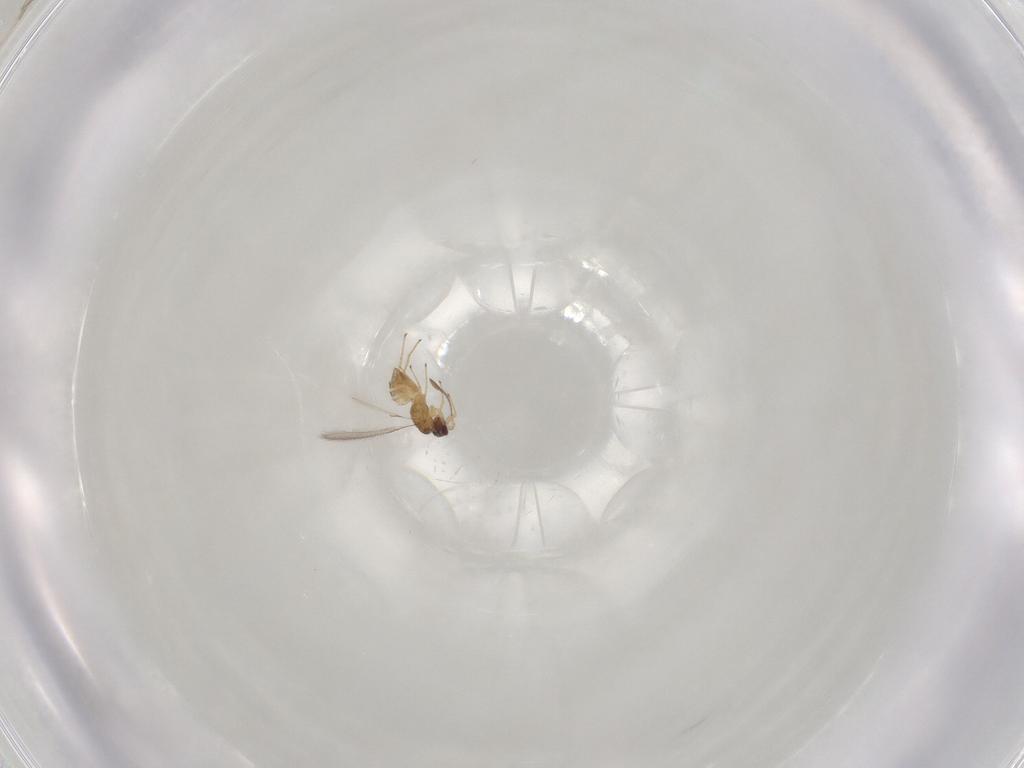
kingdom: Animalia
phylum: Arthropoda
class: Insecta
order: Hymenoptera
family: Mymaridae
